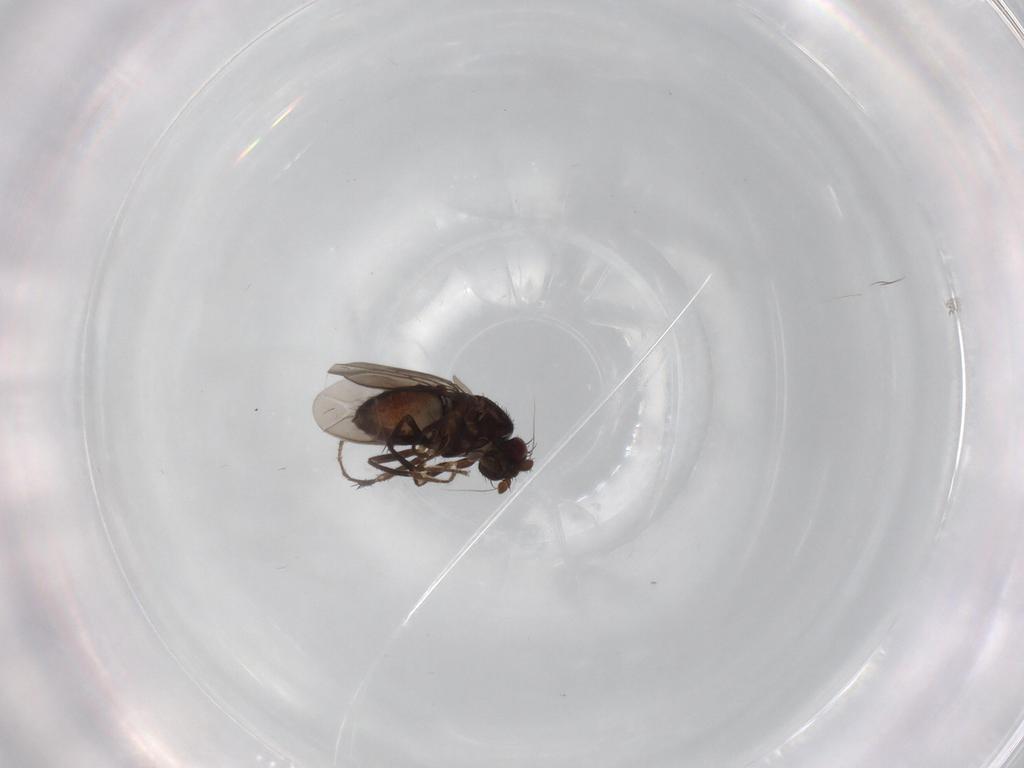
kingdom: Animalia
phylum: Arthropoda
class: Insecta
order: Diptera
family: Sphaeroceridae
